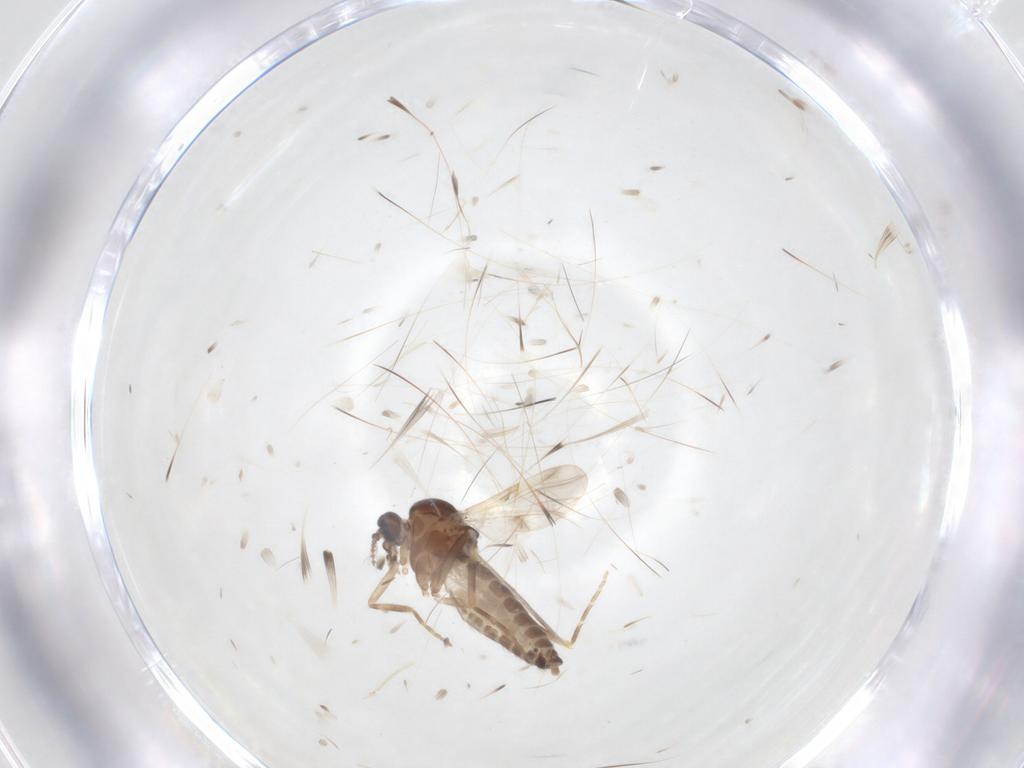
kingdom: Animalia
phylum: Arthropoda
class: Insecta
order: Diptera
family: Ceratopogonidae
